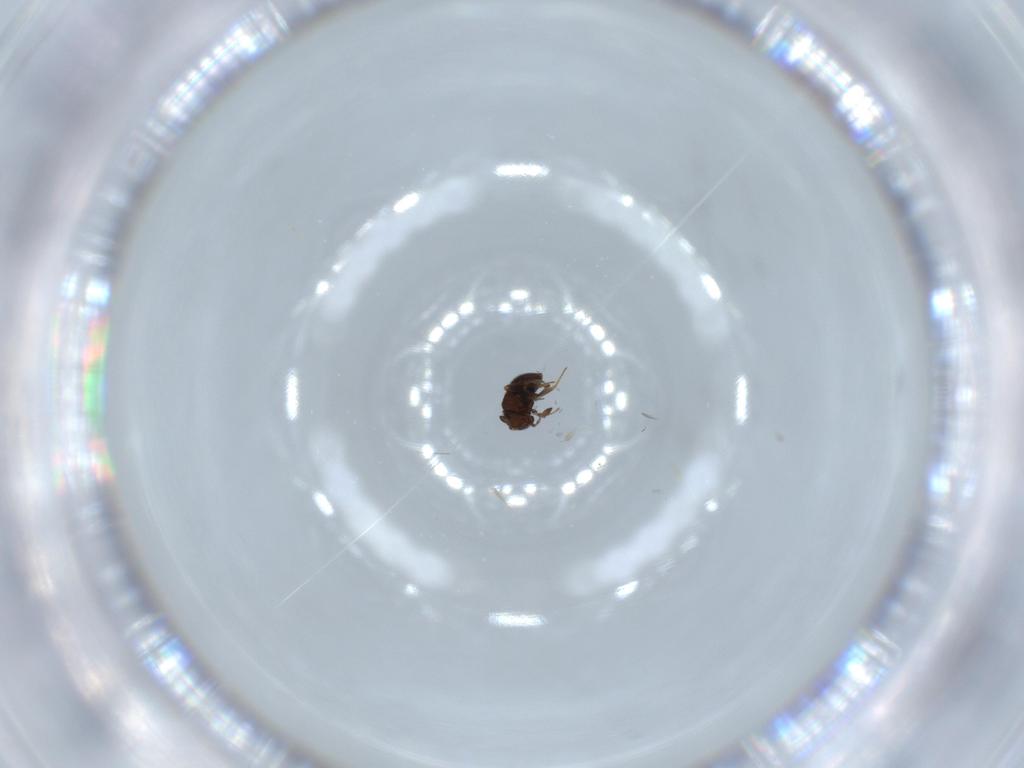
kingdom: Animalia
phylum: Arthropoda
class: Insecta
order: Hymenoptera
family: Scelionidae
